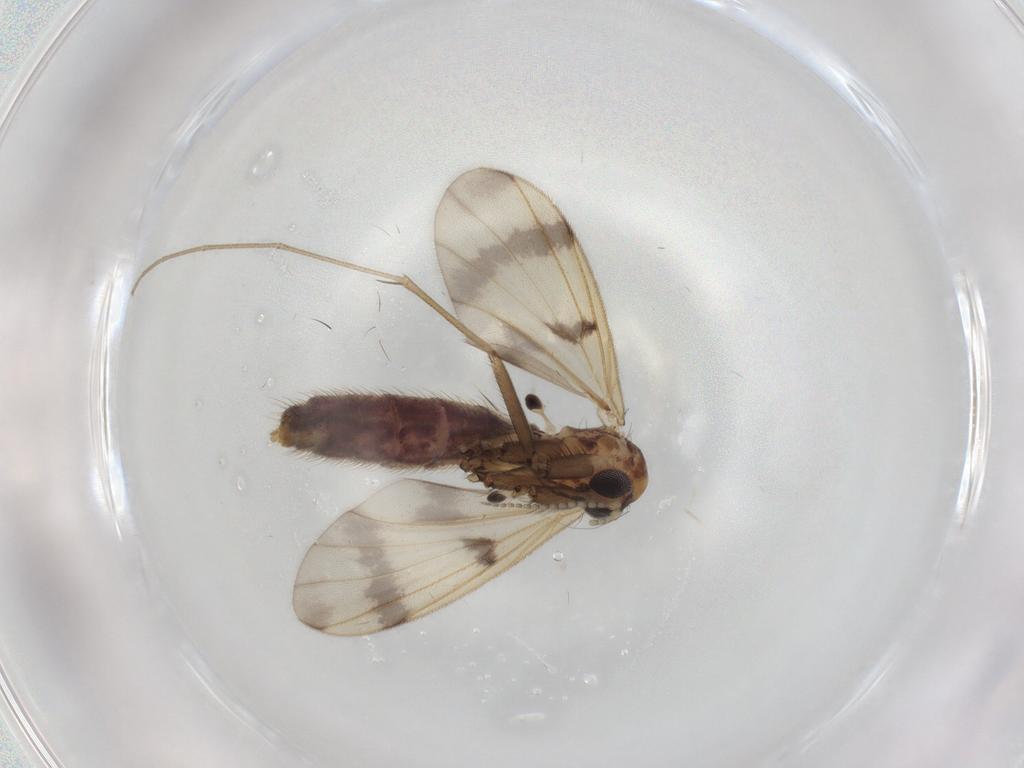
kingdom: Animalia
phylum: Arthropoda
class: Insecta
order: Diptera
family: Mycetophilidae
